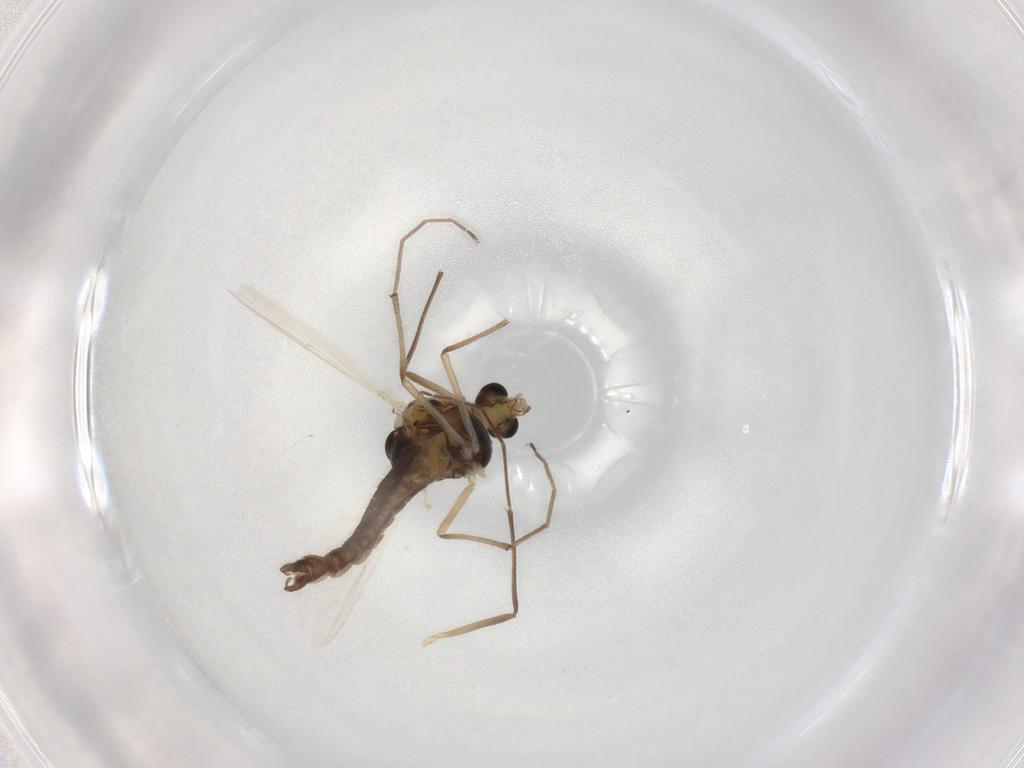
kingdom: Animalia
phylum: Arthropoda
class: Insecta
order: Diptera
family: Chironomidae
